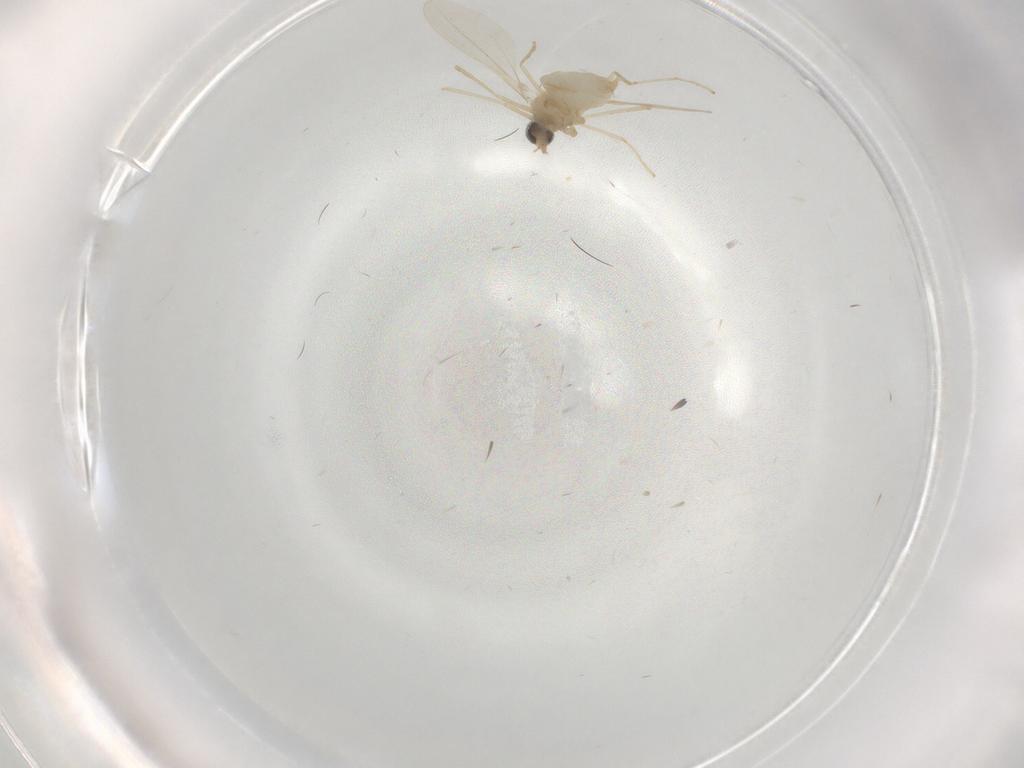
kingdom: Animalia
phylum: Arthropoda
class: Insecta
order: Diptera
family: Cecidomyiidae
